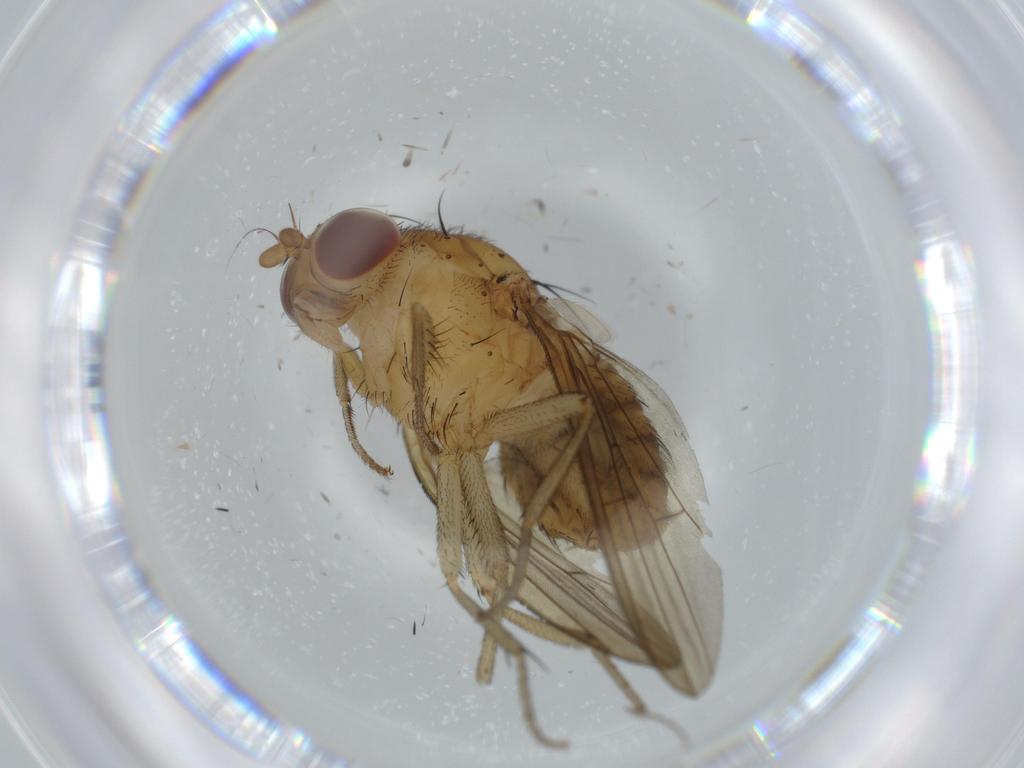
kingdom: Animalia
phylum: Arthropoda
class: Insecta
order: Diptera
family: Chironomidae
